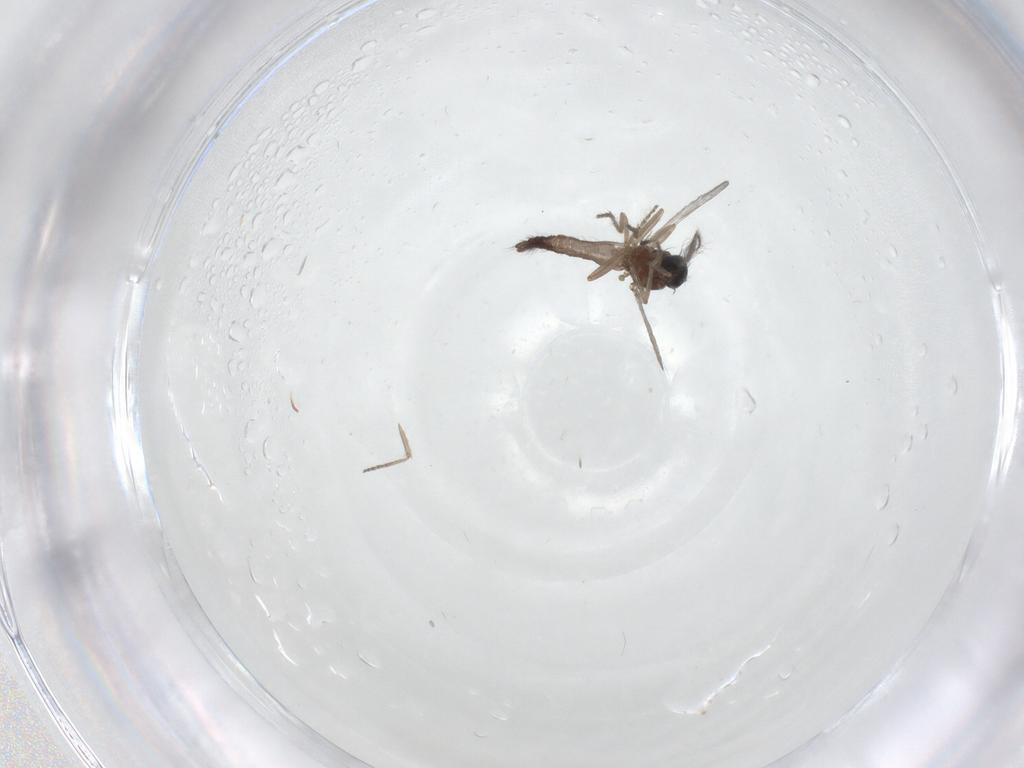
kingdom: Animalia
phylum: Arthropoda
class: Insecta
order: Diptera
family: Ceratopogonidae
